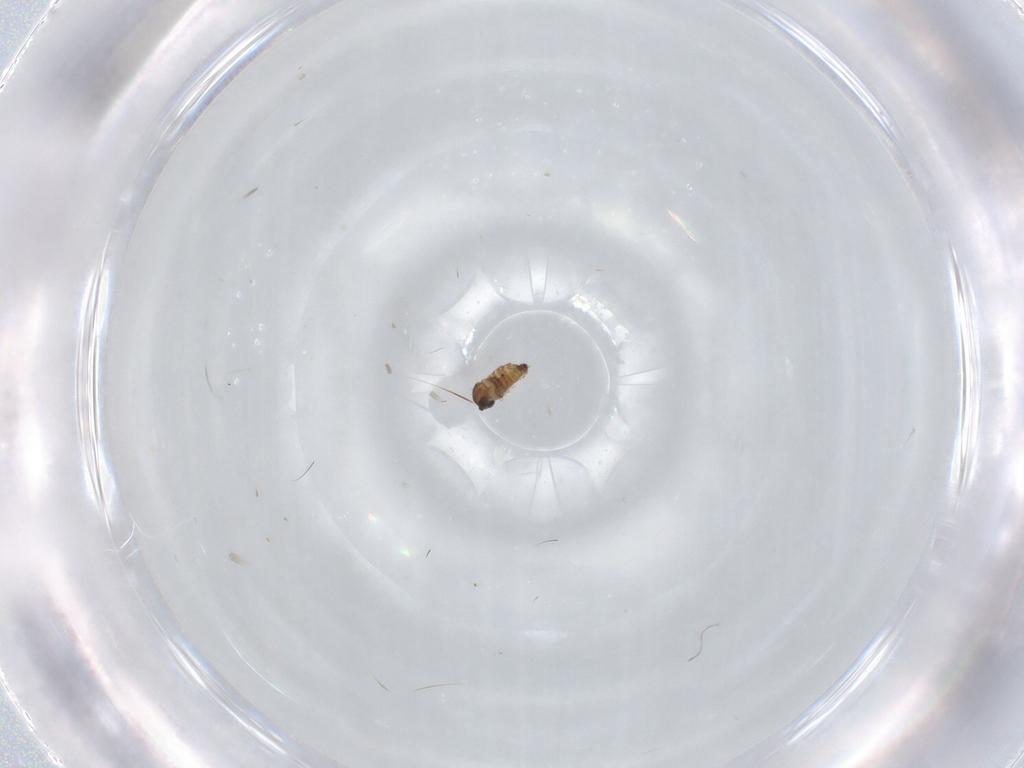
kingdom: Animalia
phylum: Arthropoda
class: Insecta
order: Diptera
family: Cecidomyiidae
